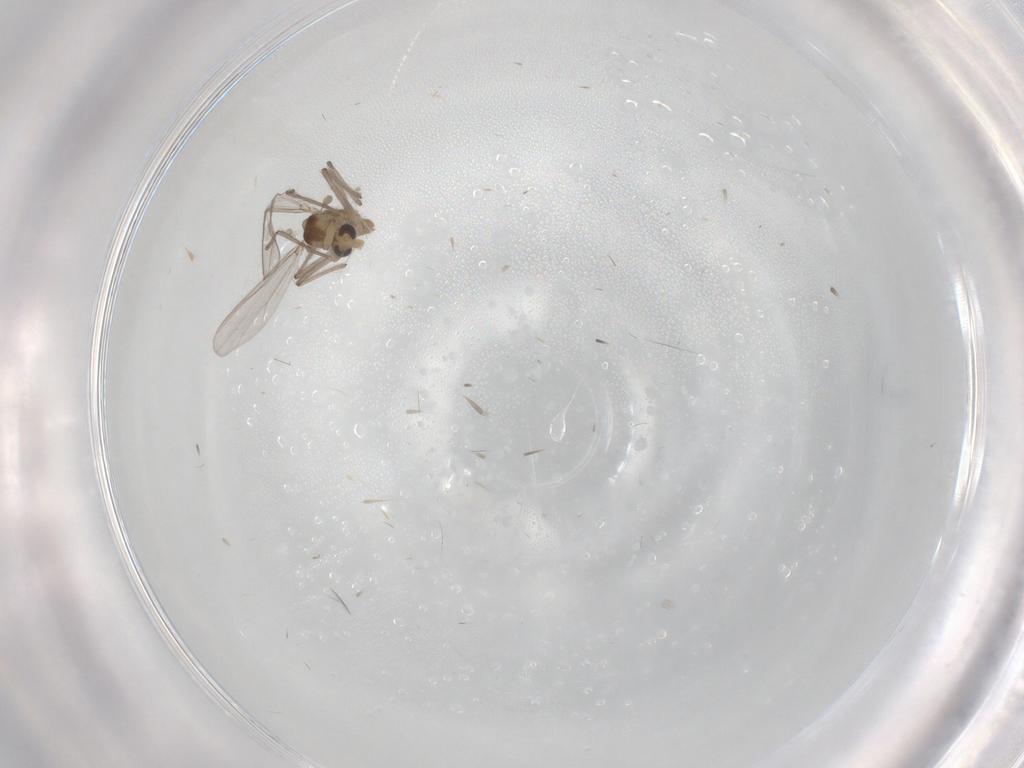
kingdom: Animalia
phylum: Arthropoda
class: Insecta
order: Diptera
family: Chironomidae
